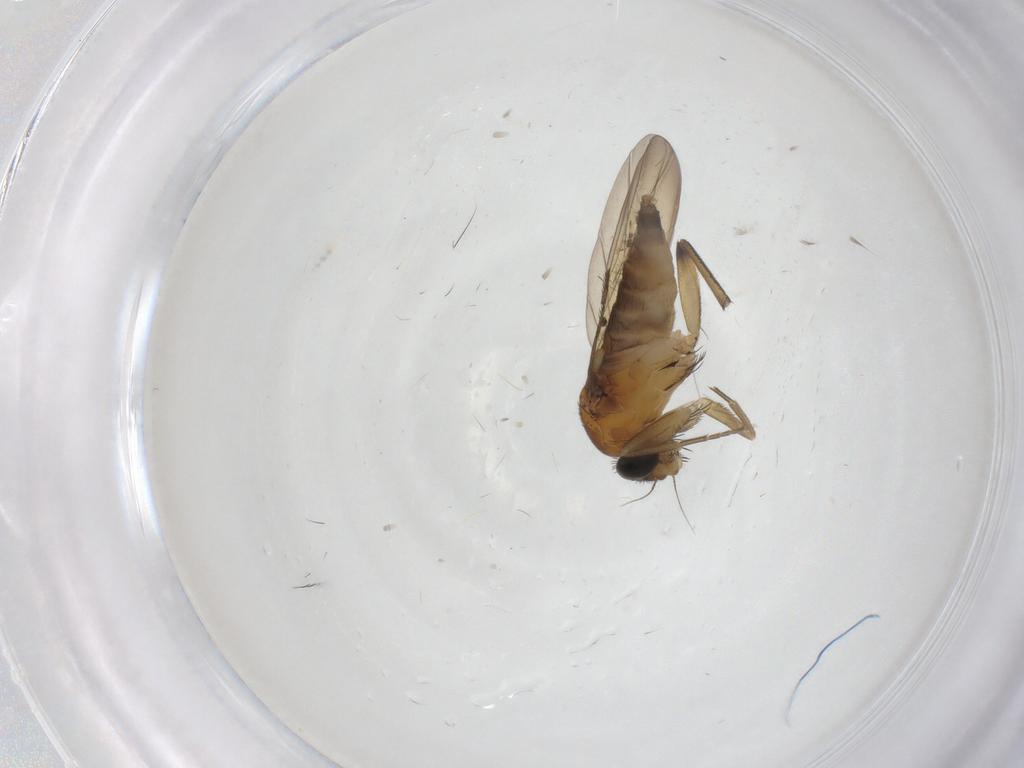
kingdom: Animalia
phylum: Arthropoda
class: Insecta
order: Diptera
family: Phoridae
